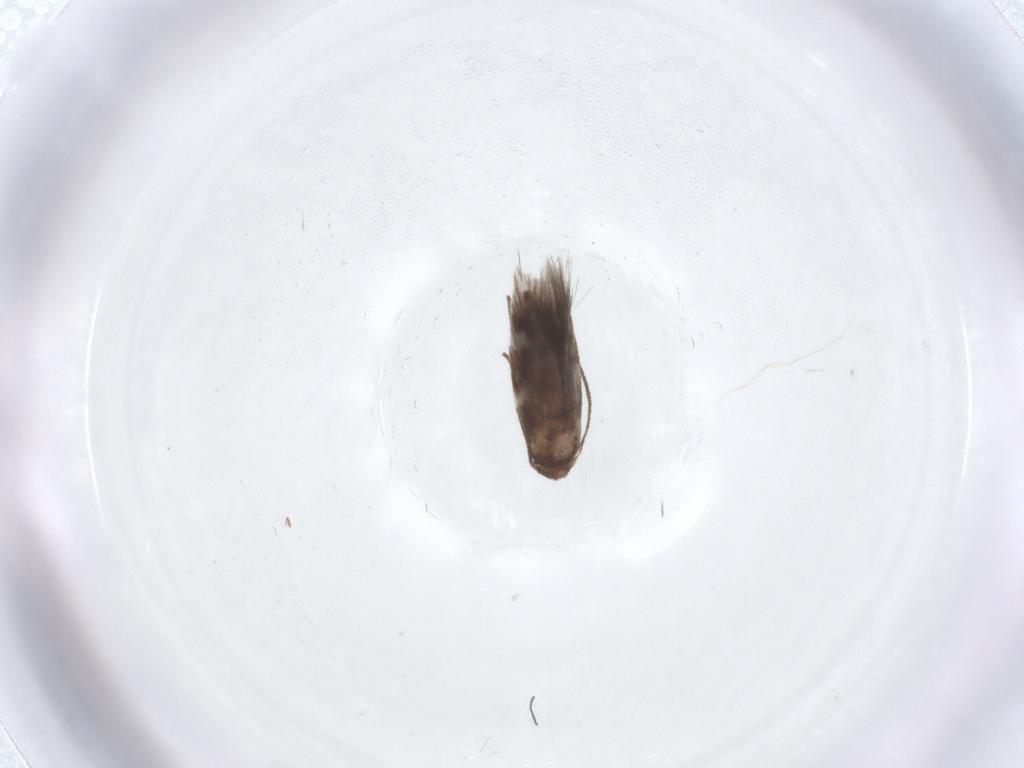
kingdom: Animalia
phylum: Arthropoda
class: Insecta
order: Lepidoptera
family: Lyonetiidae
